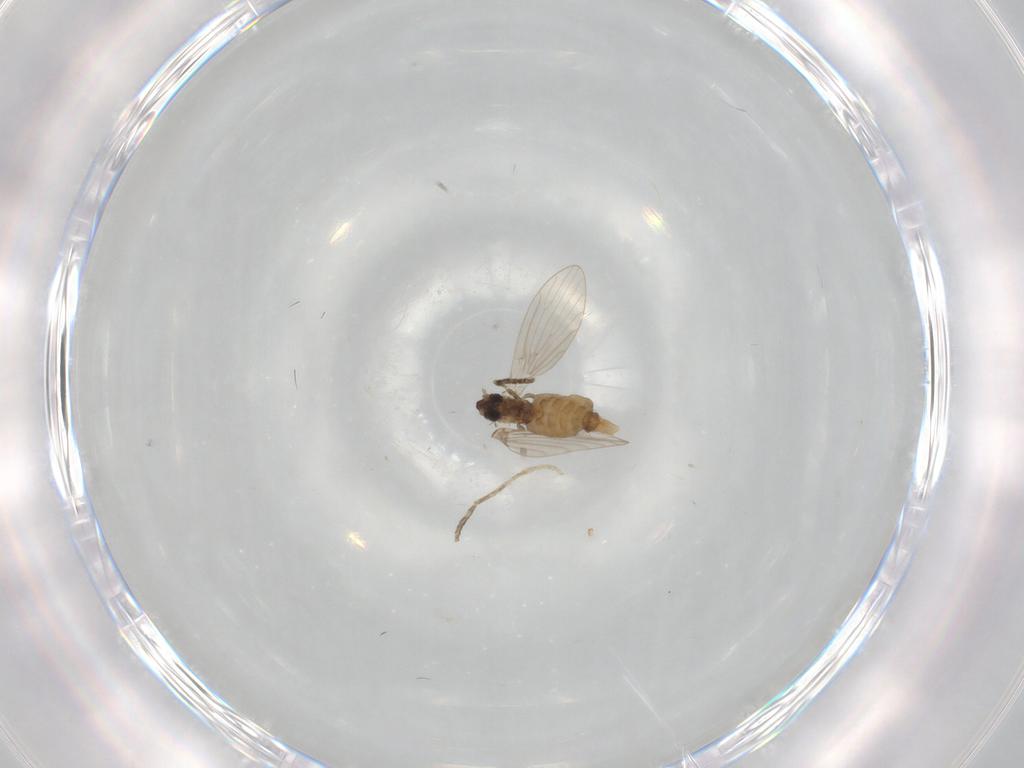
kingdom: Animalia
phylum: Arthropoda
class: Insecta
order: Diptera
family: Psychodidae
